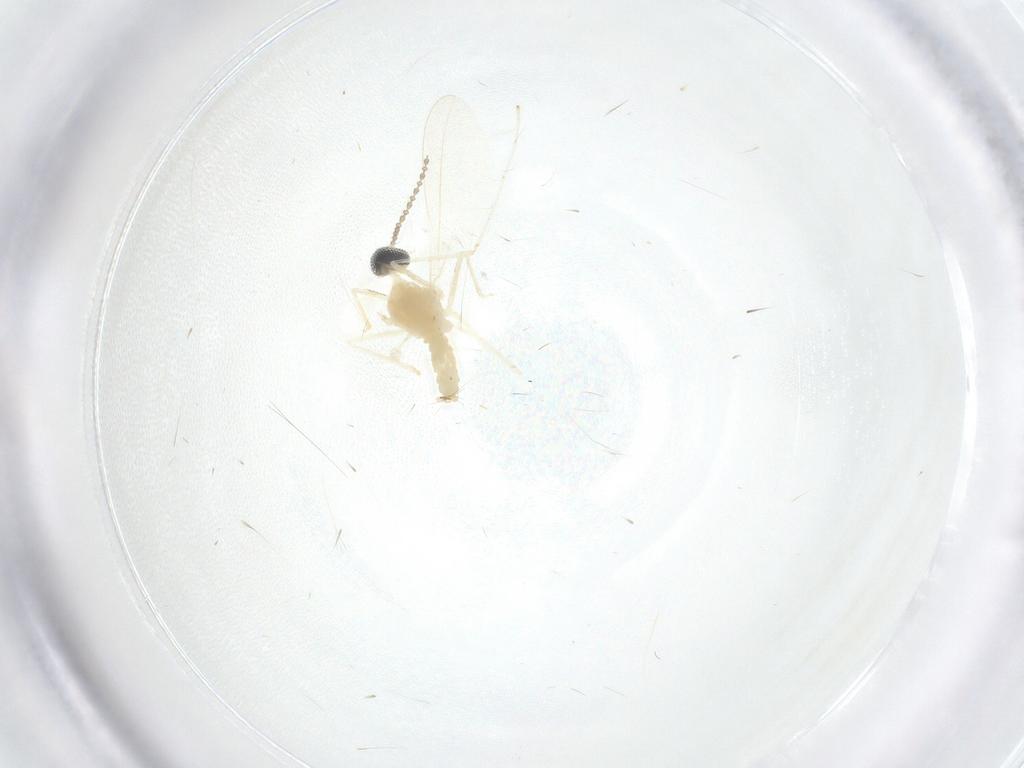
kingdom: Animalia
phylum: Arthropoda
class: Insecta
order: Diptera
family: Cecidomyiidae
